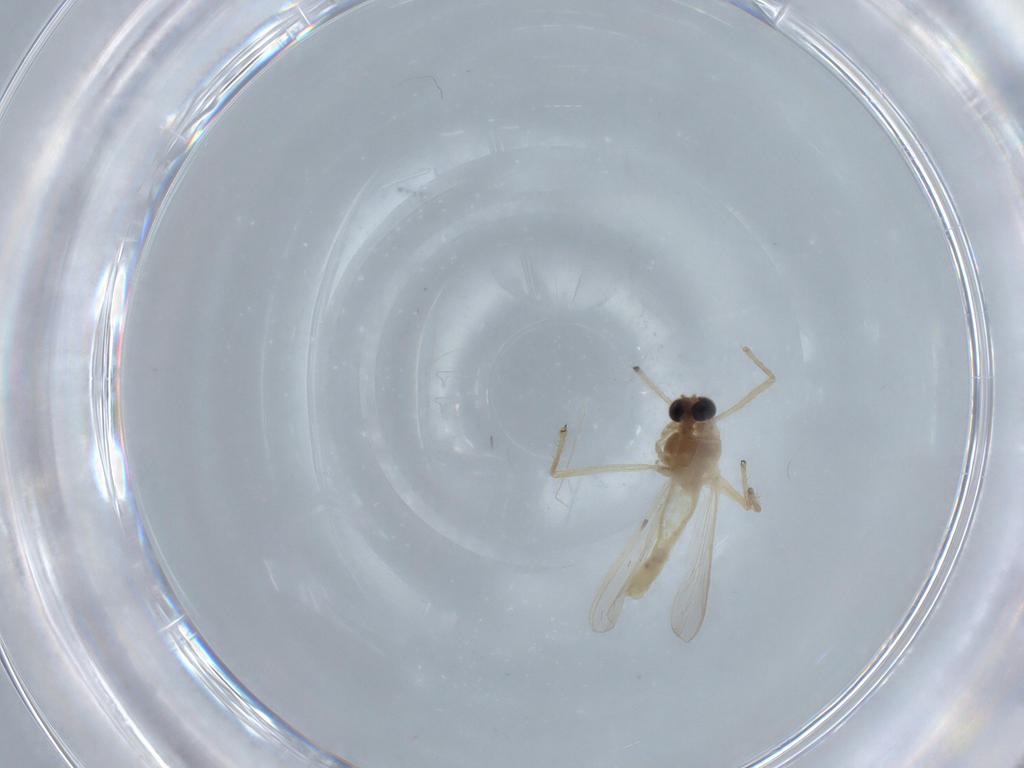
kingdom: Animalia
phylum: Arthropoda
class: Insecta
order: Diptera
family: Chironomidae
